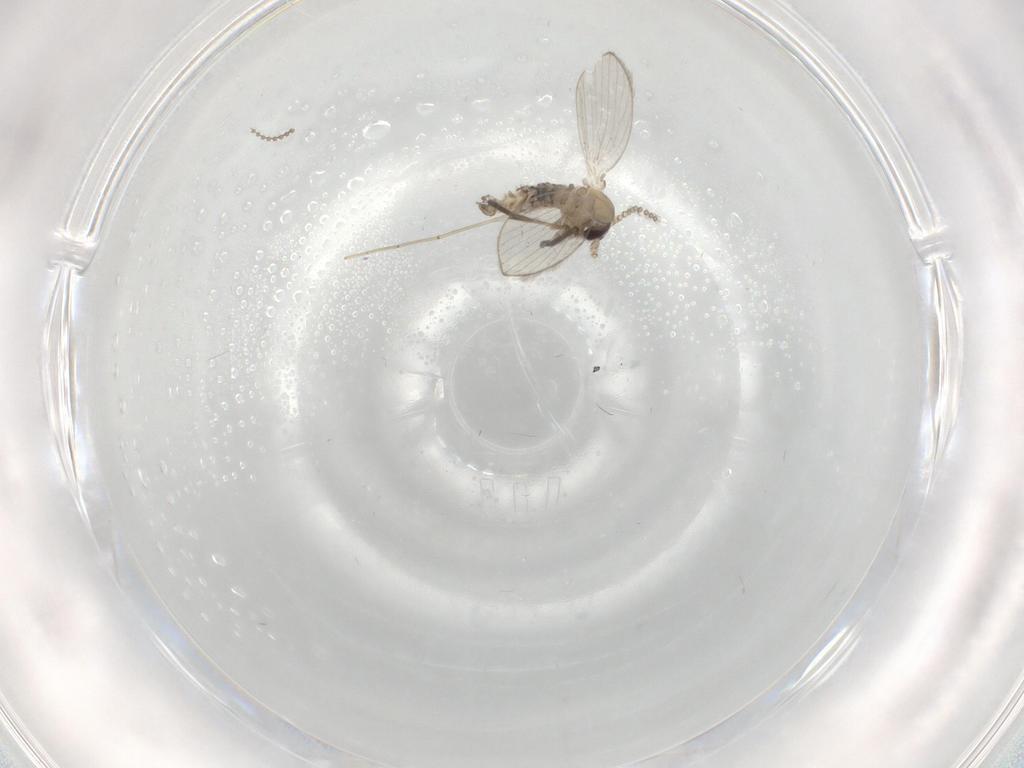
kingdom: Animalia
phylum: Arthropoda
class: Insecta
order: Diptera
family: Psychodidae
